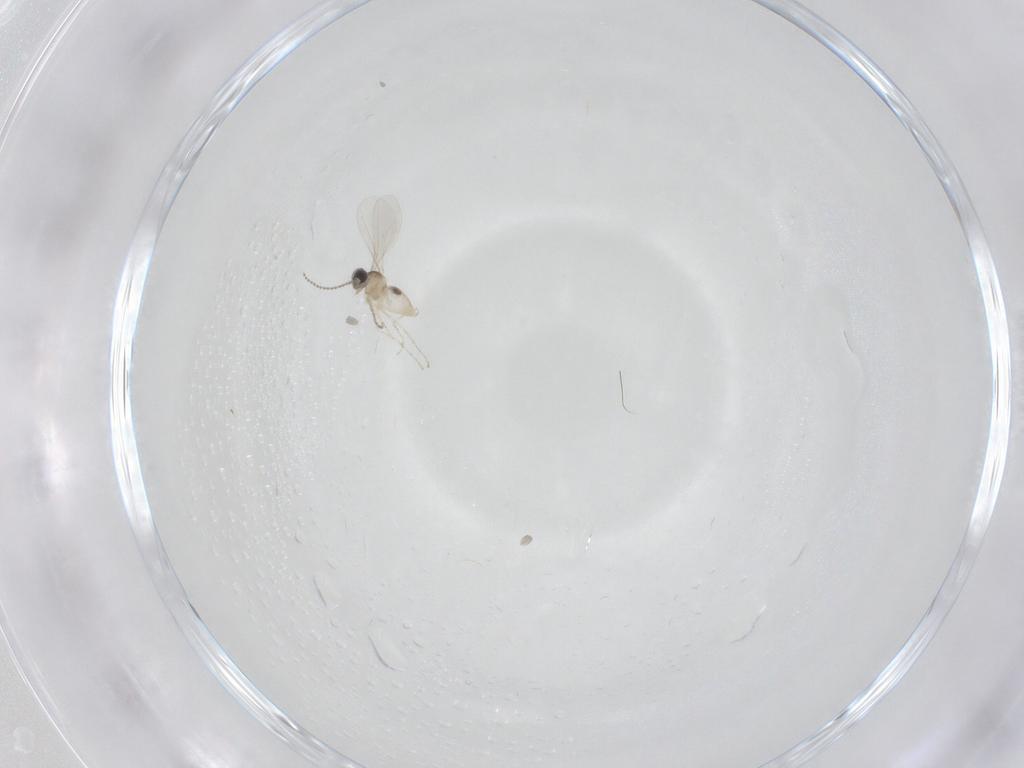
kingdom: Animalia
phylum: Arthropoda
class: Insecta
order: Diptera
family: Cecidomyiidae
